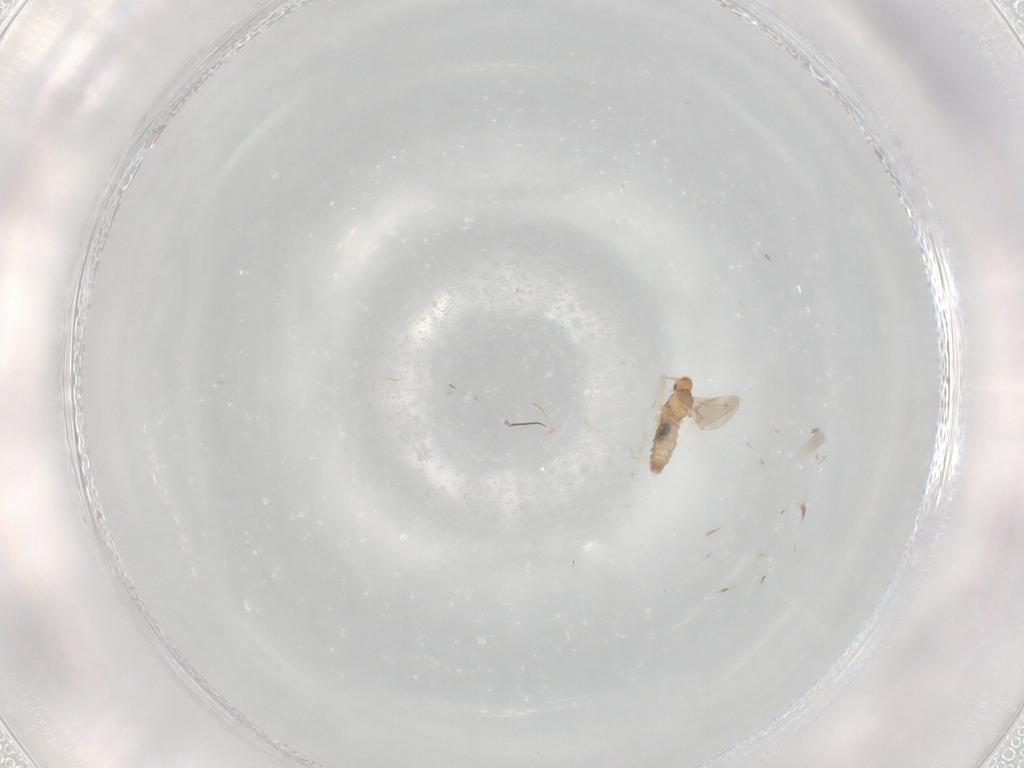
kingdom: Animalia
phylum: Arthropoda
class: Insecta
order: Diptera
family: Cecidomyiidae
